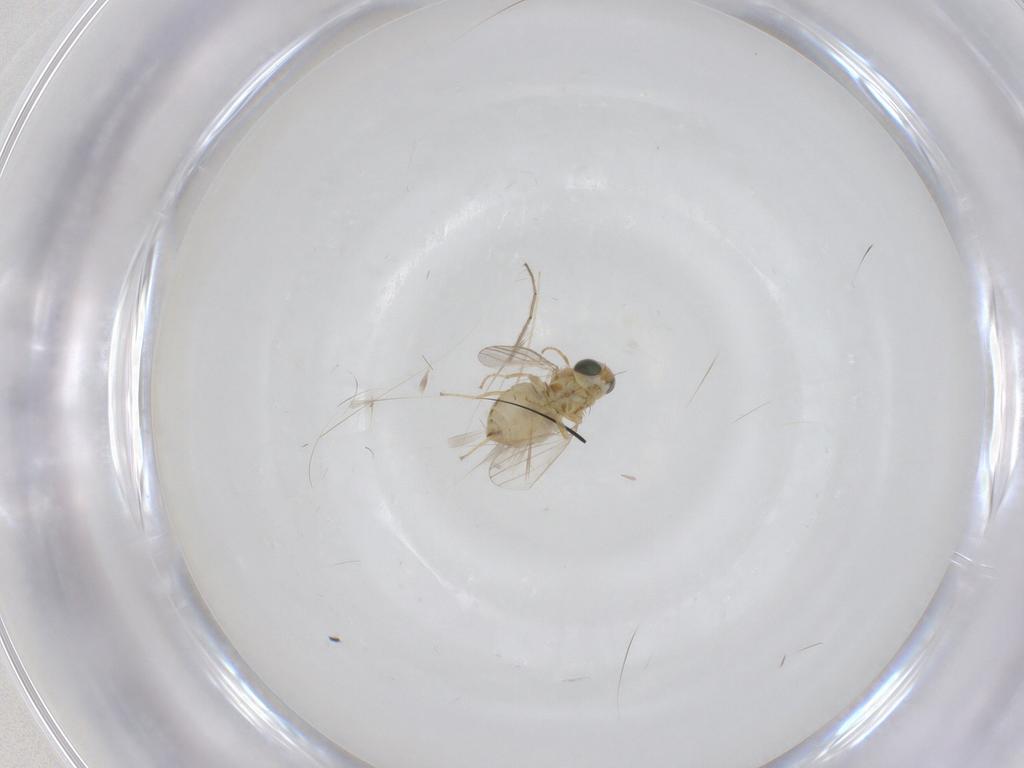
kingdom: Animalia
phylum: Arthropoda
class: Insecta
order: Diptera
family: Chyromyidae
